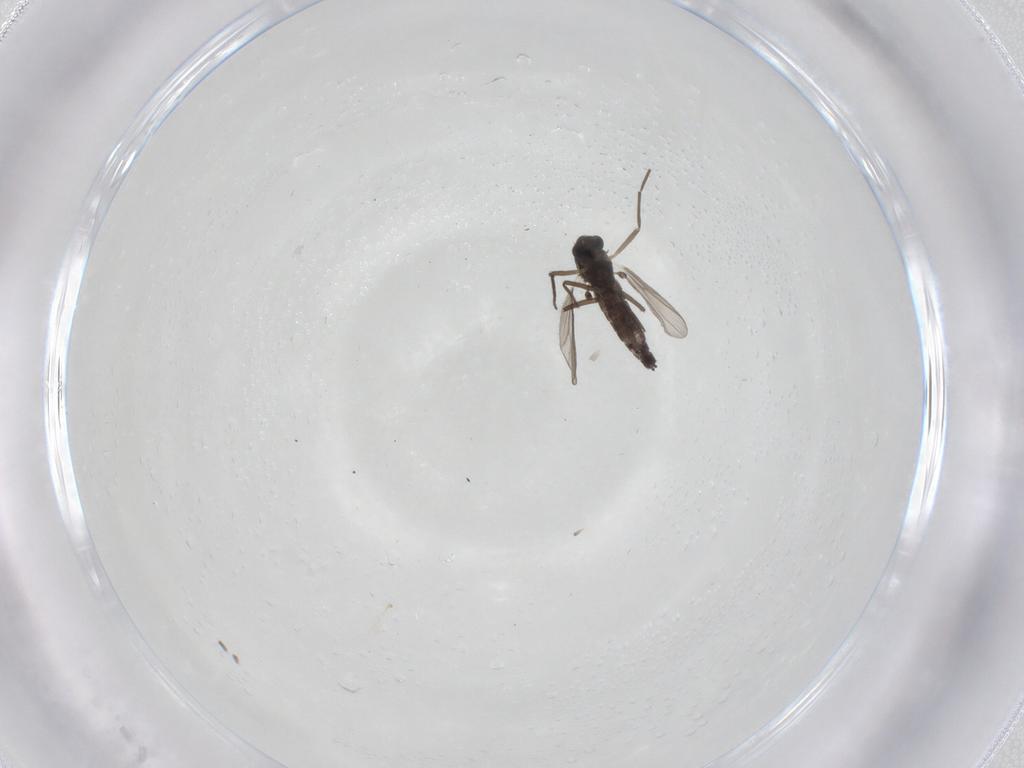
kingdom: Animalia
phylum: Arthropoda
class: Insecta
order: Diptera
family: Chironomidae
